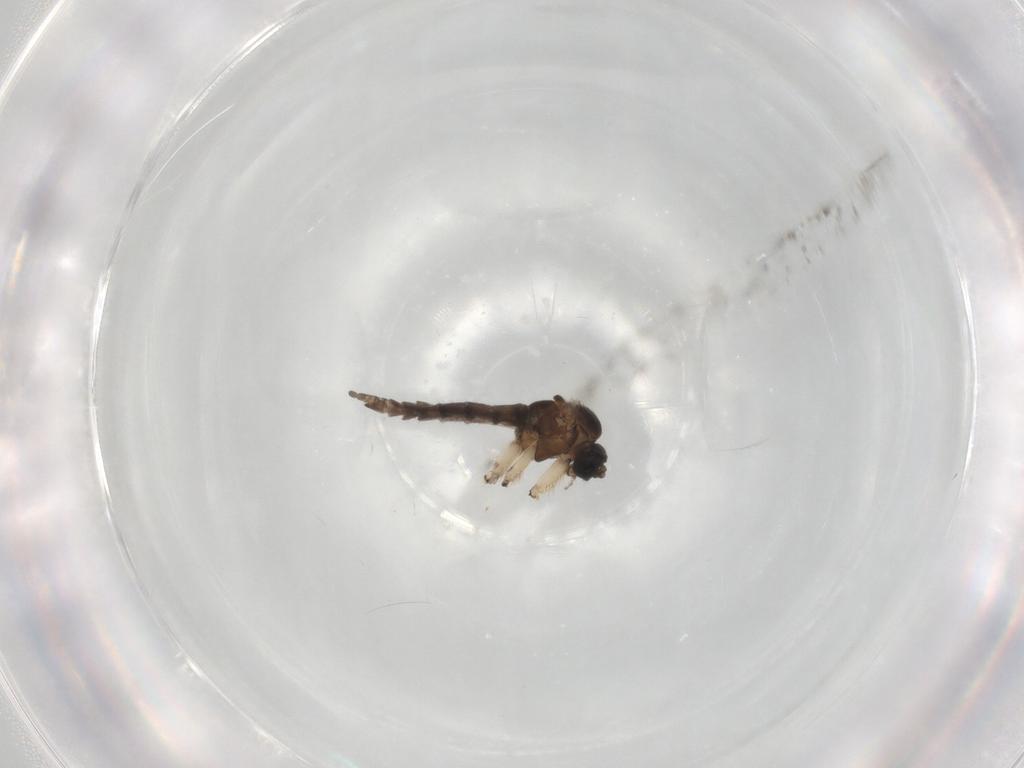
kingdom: Animalia
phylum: Arthropoda
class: Insecta
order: Diptera
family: Sciaridae
